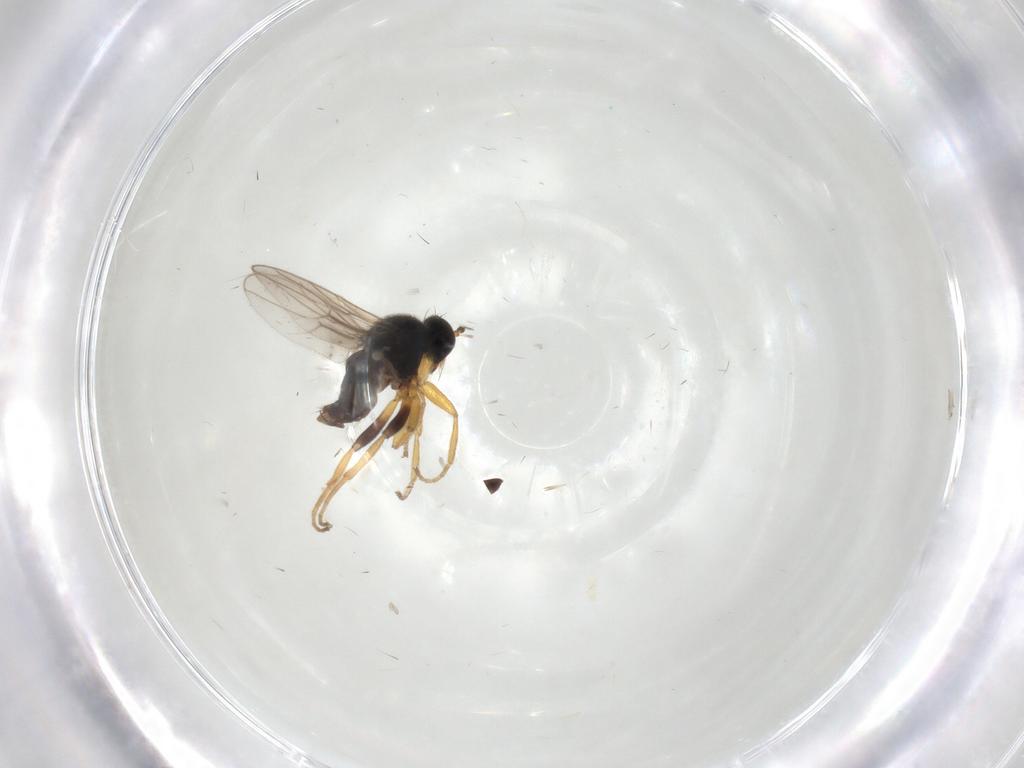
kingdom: Animalia
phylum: Arthropoda
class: Insecta
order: Diptera
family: Hybotidae
